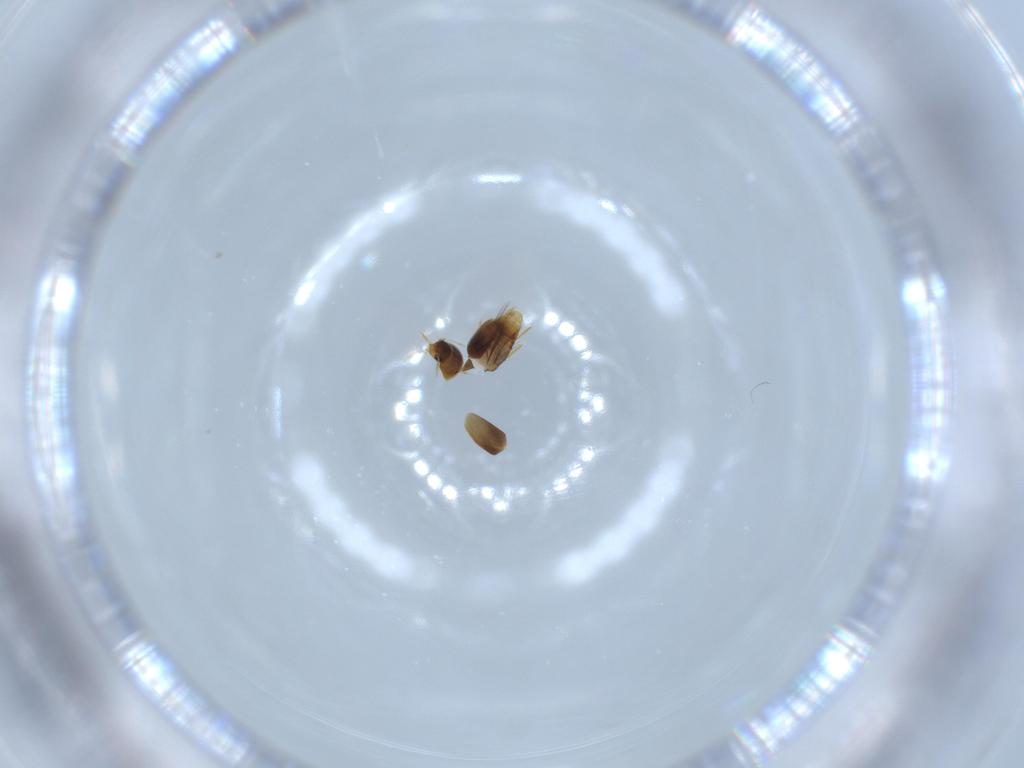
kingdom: Animalia
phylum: Arthropoda
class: Insecta
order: Coleoptera
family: Ptiliidae
